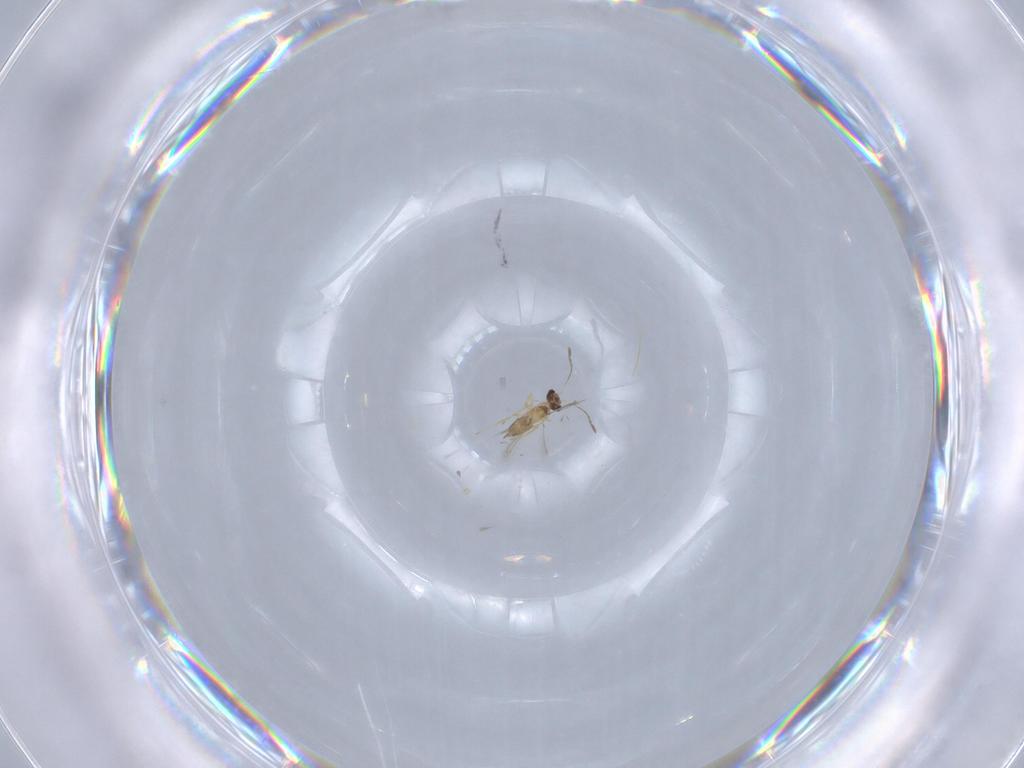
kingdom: Animalia
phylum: Arthropoda
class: Insecta
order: Hymenoptera
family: Mymaridae
